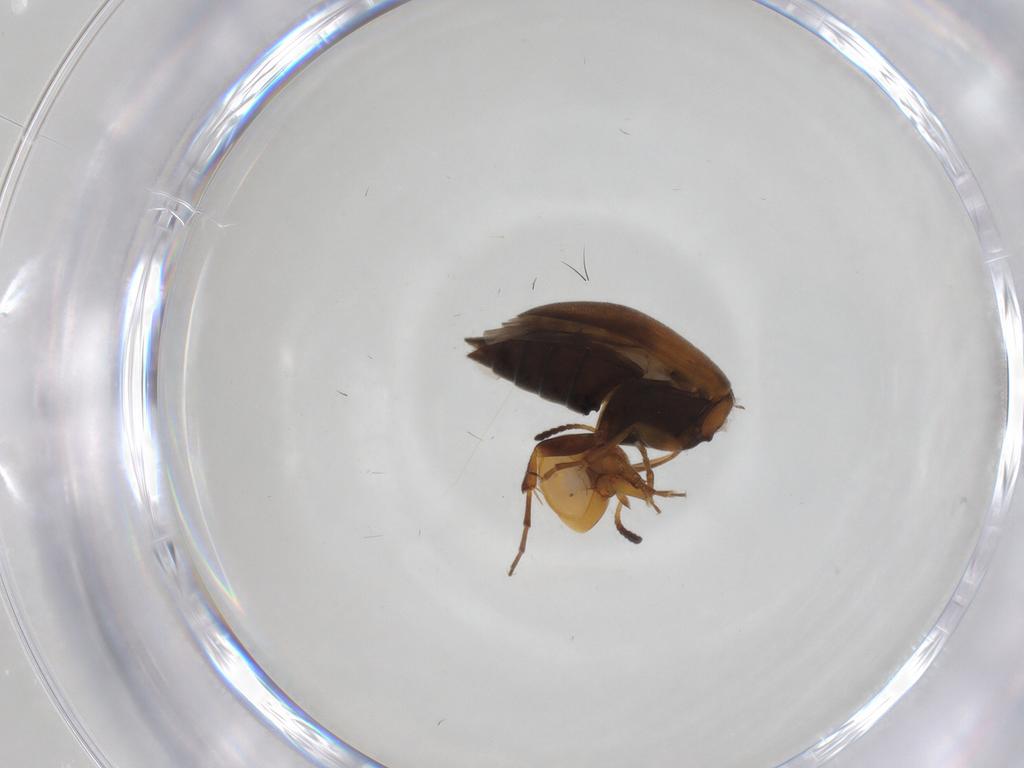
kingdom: Animalia
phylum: Arthropoda
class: Insecta
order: Coleoptera
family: Scraptiidae
